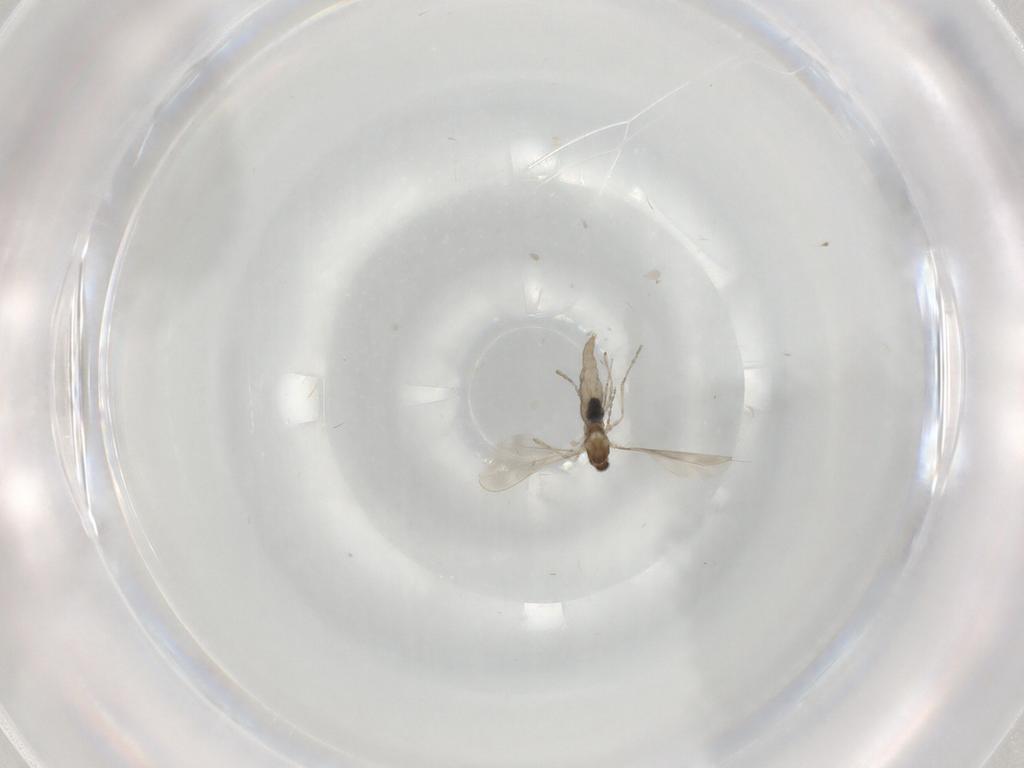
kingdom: Animalia
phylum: Arthropoda
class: Insecta
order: Diptera
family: Cecidomyiidae
